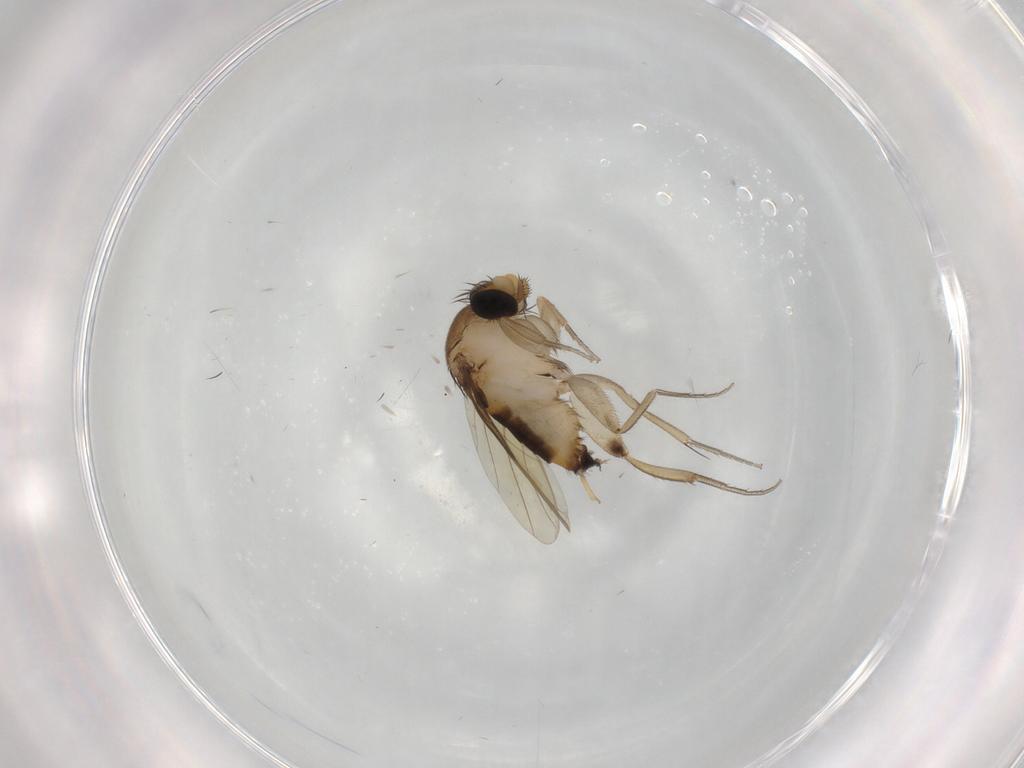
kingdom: Animalia
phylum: Arthropoda
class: Insecta
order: Diptera
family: Phoridae
